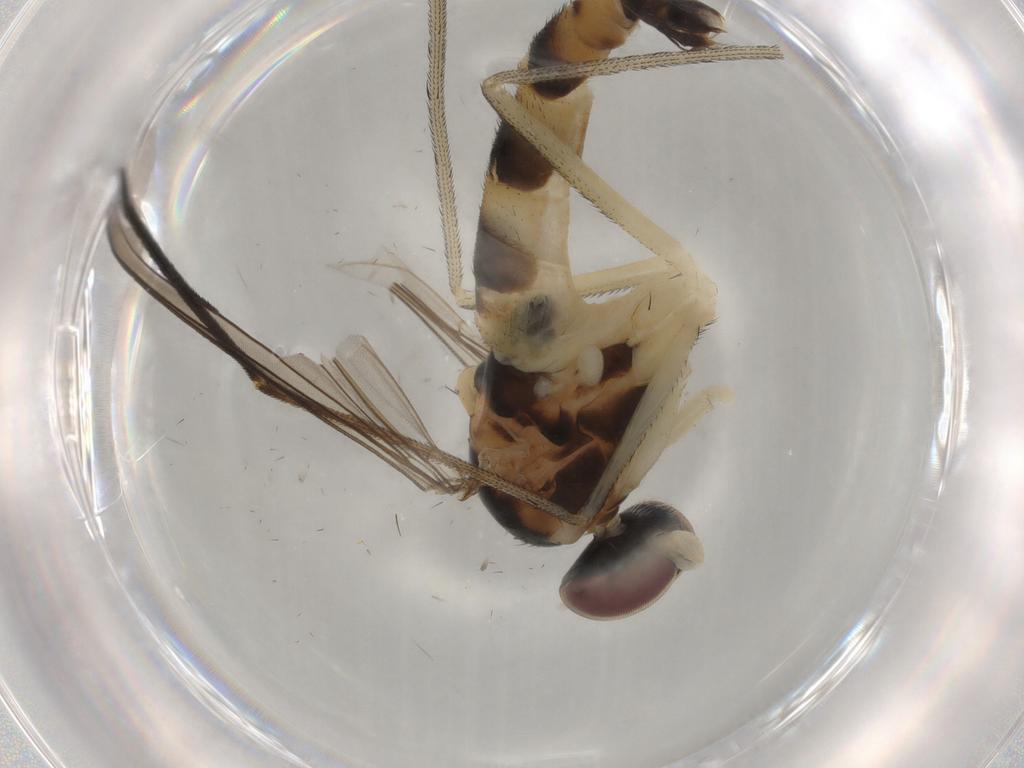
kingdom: Animalia
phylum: Arthropoda
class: Insecta
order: Diptera
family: Sciaridae
